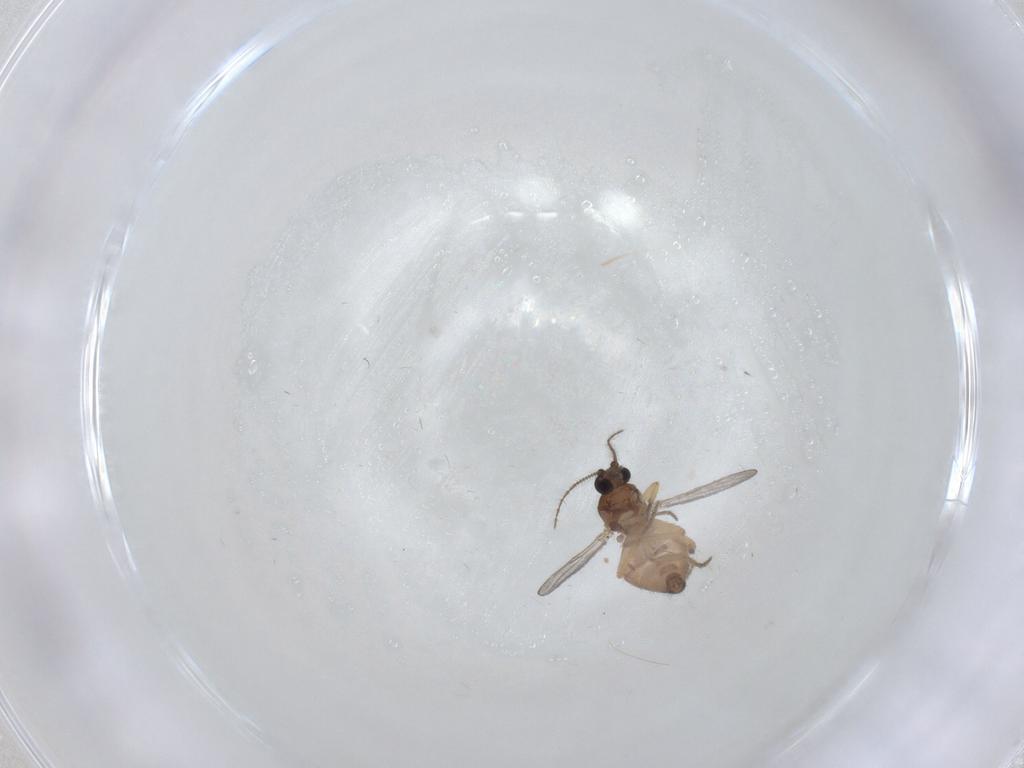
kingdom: Animalia
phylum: Arthropoda
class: Insecta
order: Diptera
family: Ceratopogonidae
